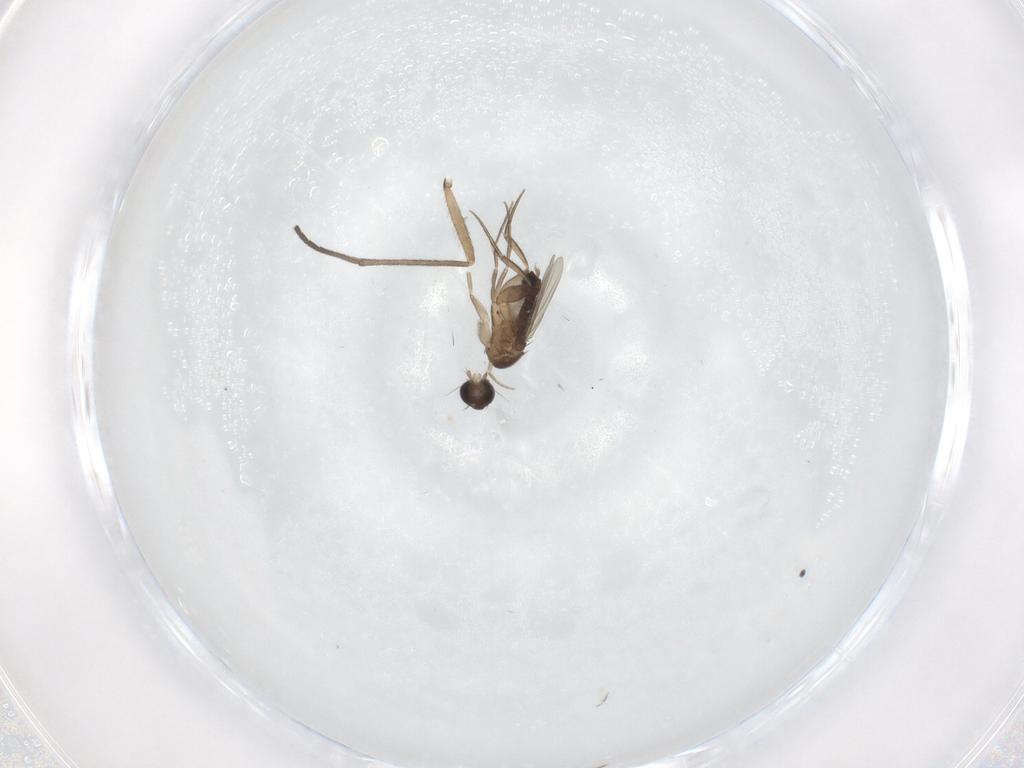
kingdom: Animalia
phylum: Arthropoda
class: Insecta
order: Diptera
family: Phoridae
